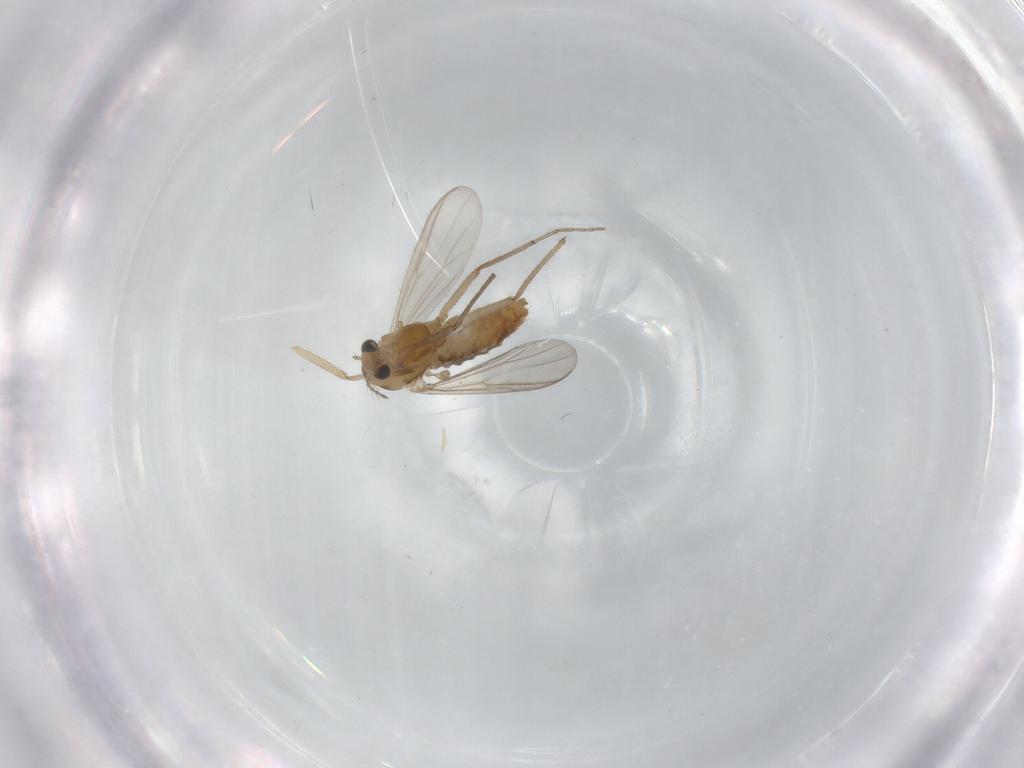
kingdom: Animalia
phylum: Arthropoda
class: Insecta
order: Diptera
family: Chironomidae
